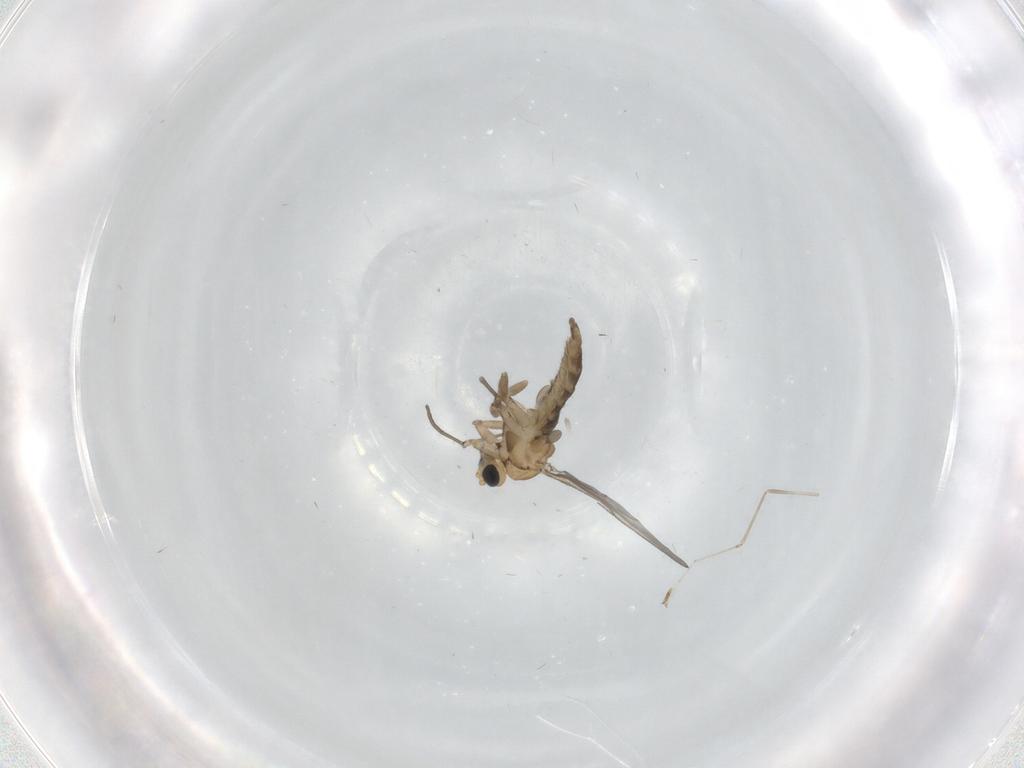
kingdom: Animalia
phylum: Arthropoda
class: Insecta
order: Diptera
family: Sciaridae
